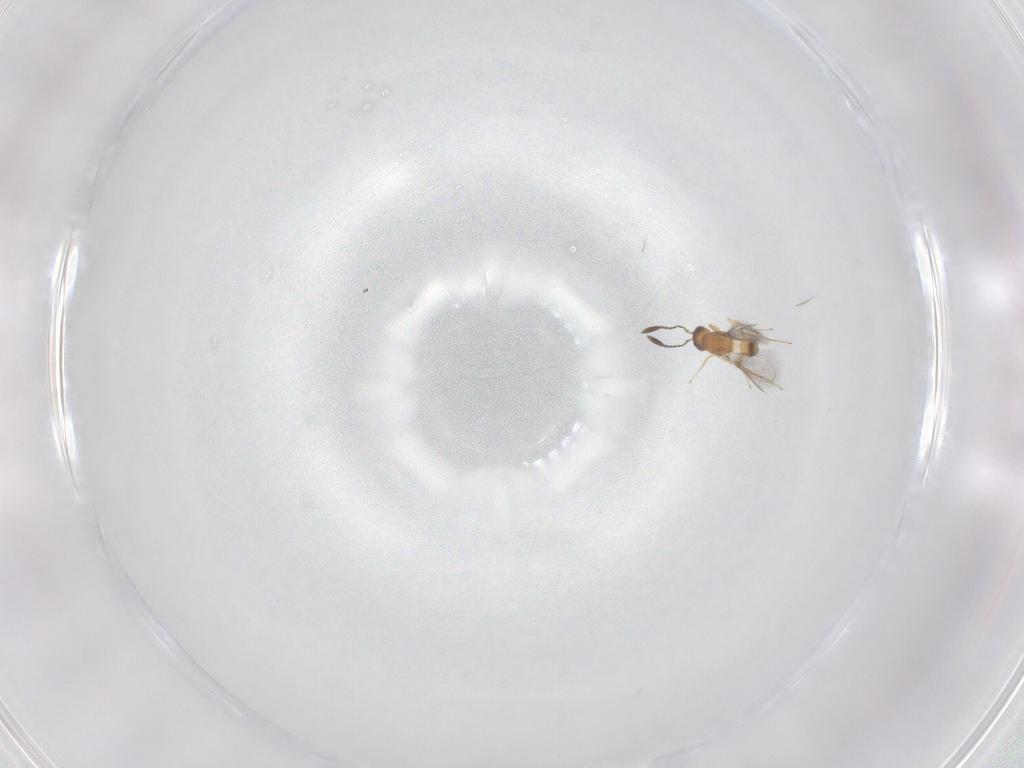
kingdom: Animalia
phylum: Arthropoda
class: Insecta
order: Hymenoptera
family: Mymaridae
